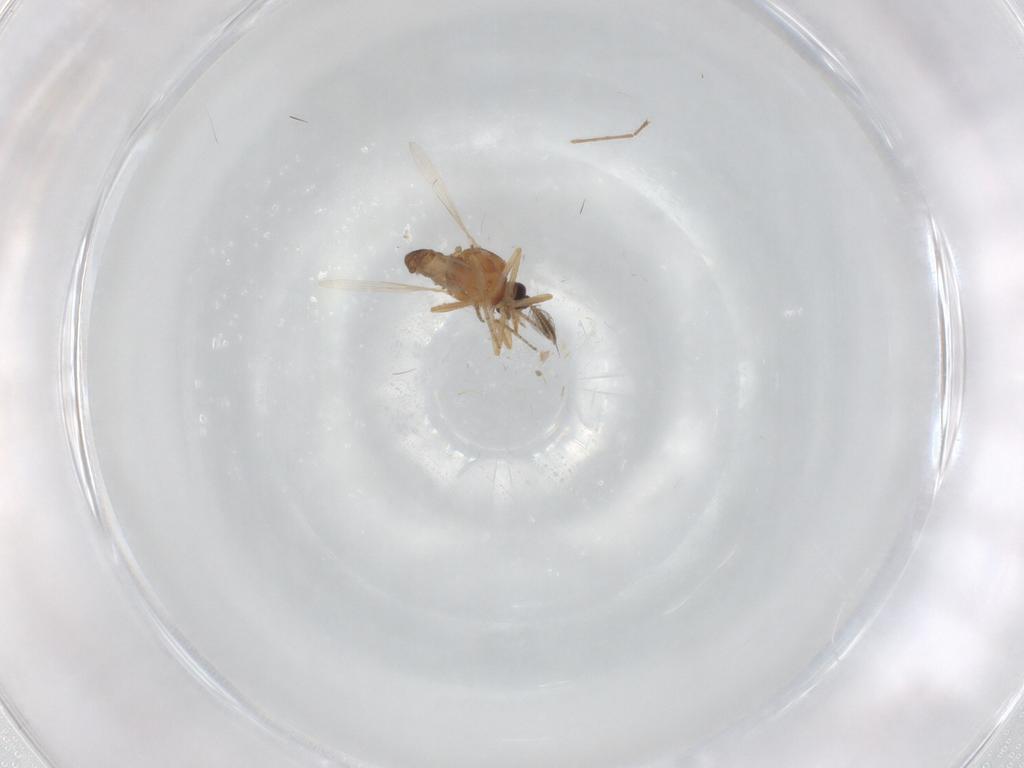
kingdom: Animalia
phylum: Arthropoda
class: Insecta
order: Diptera
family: Ceratopogonidae
